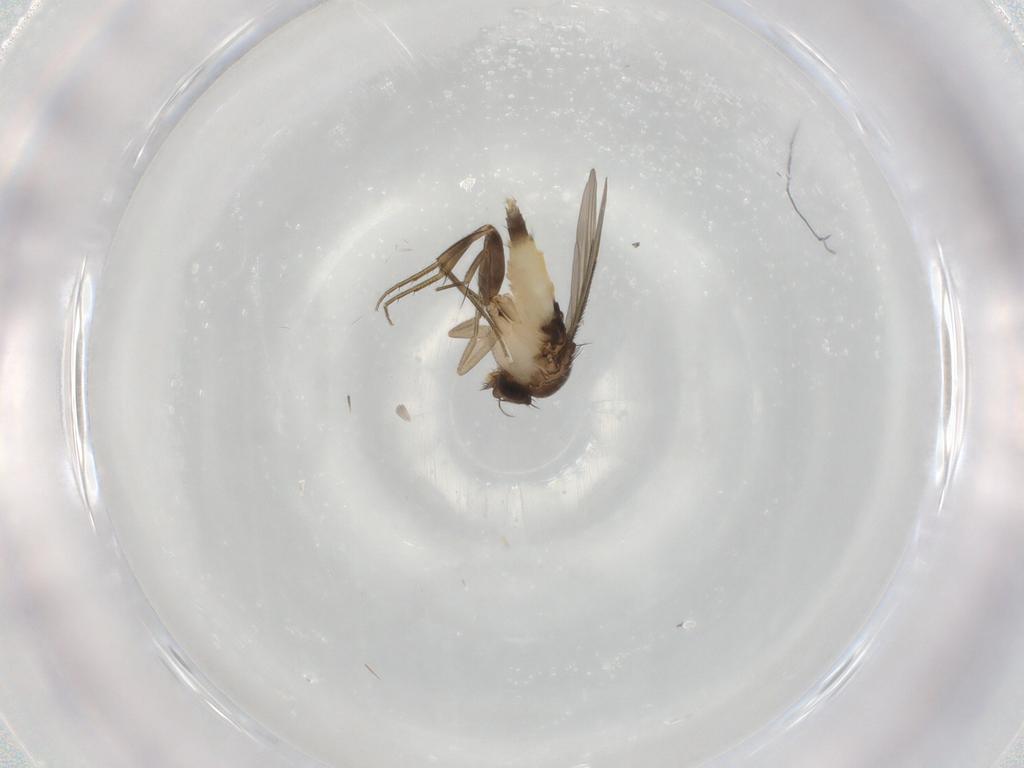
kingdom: Animalia
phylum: Arthropoda
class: Insecta
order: Diptera
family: Phoridae
